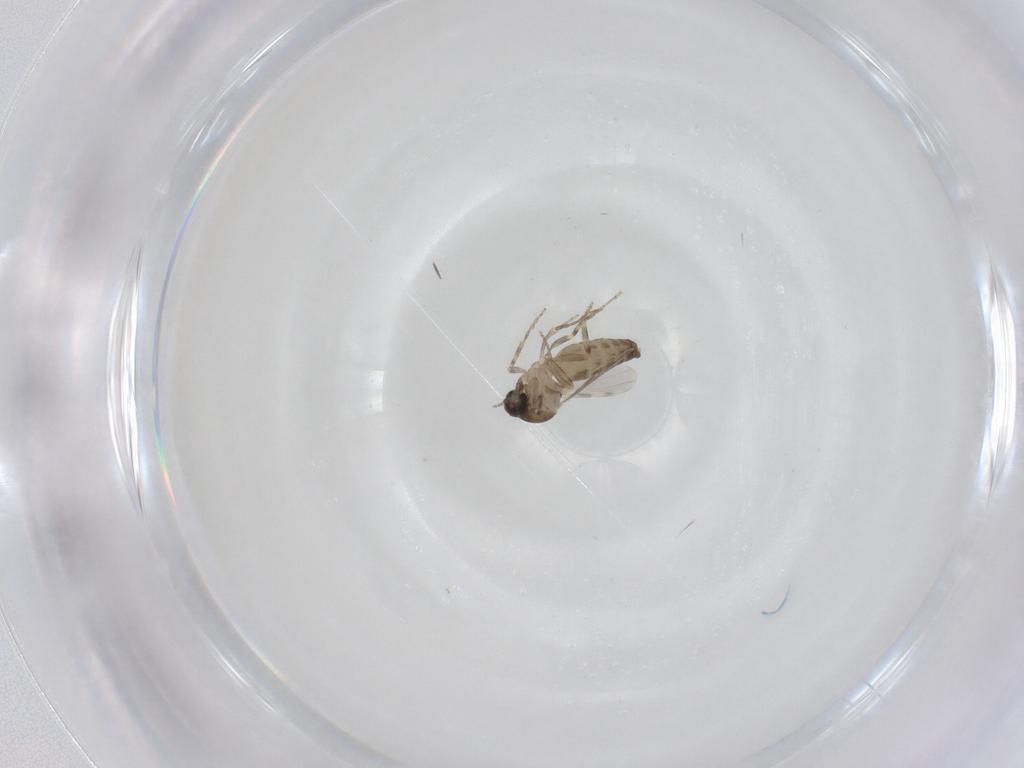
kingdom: Animalia
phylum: Arthropoda
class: Insecta
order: Diptera
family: Ceratopogonidae
